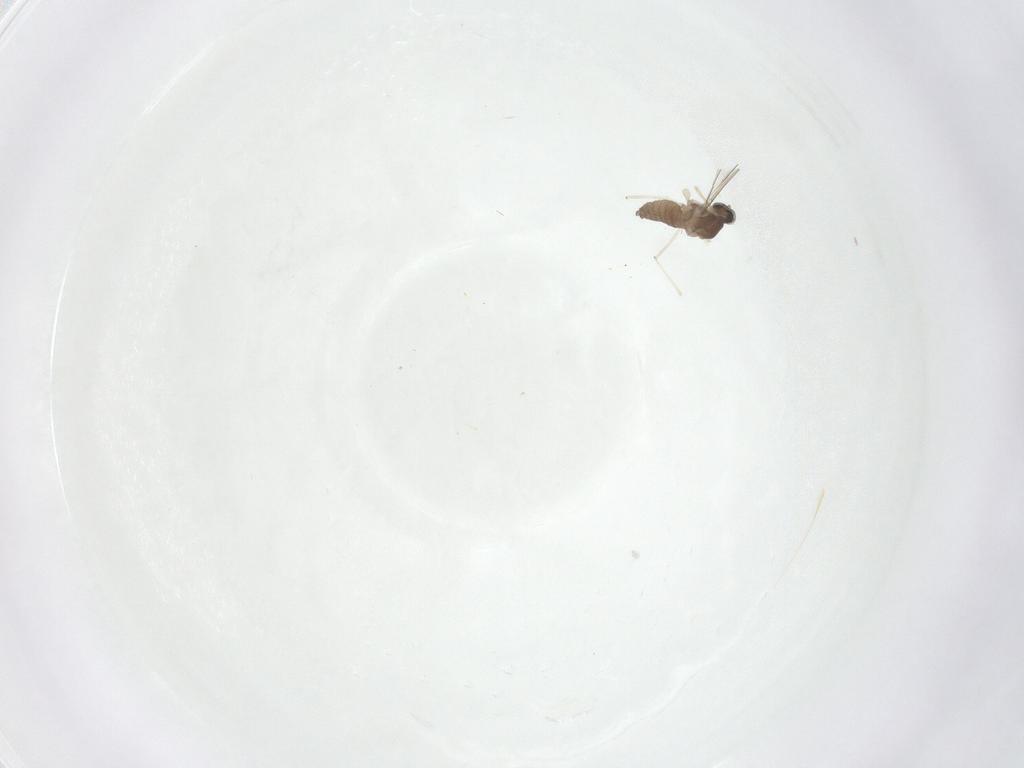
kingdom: Animalia
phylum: Arthropoda
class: Insecta
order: Diptera
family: Cecidomyiidae
